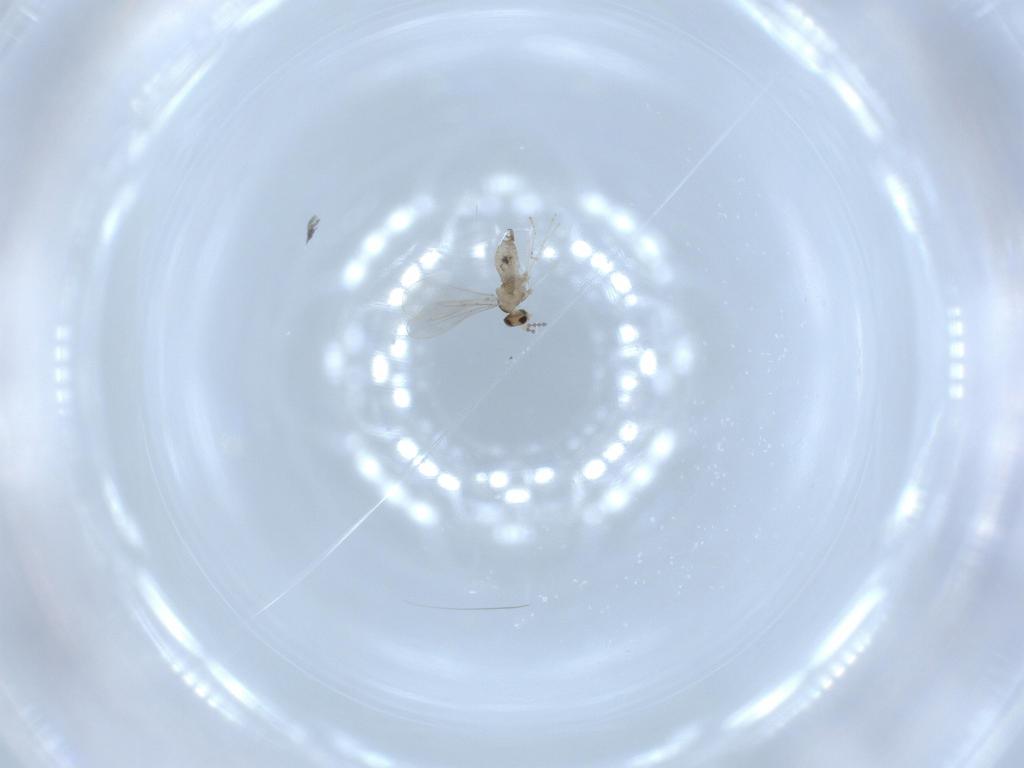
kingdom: Animalia
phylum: Arthropoda
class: Insecta
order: Diptera
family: Cecidomyiidae
